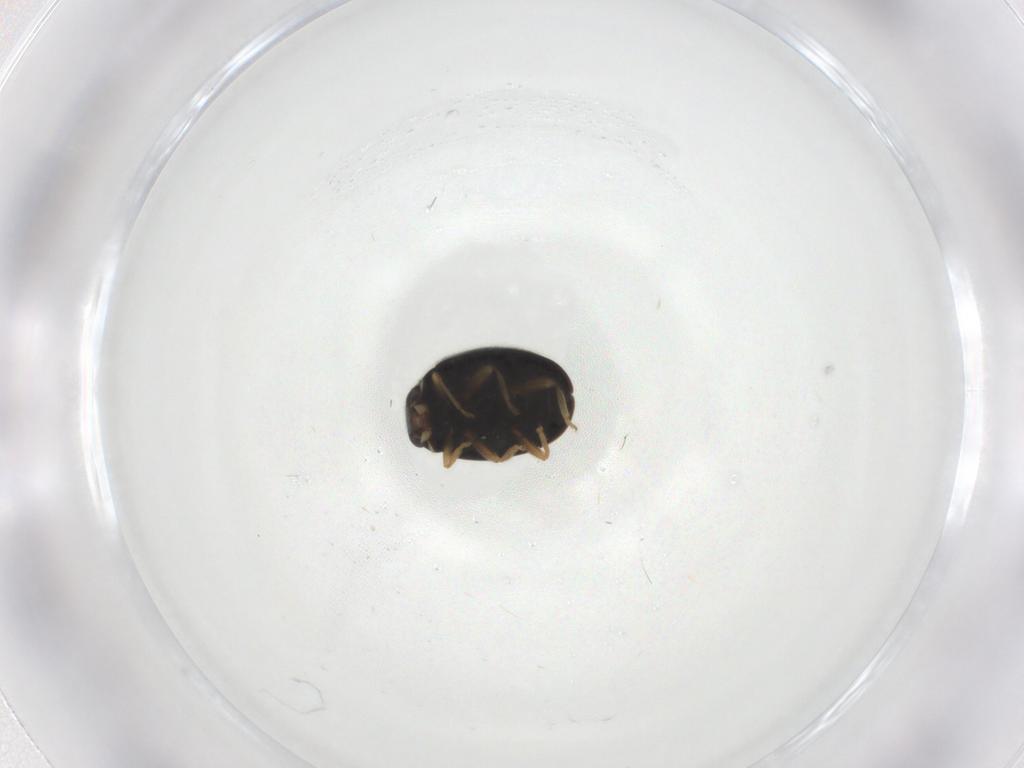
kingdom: Animalia
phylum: Arthropoda
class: Insecta
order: Coleoptera
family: Coccinellidae
